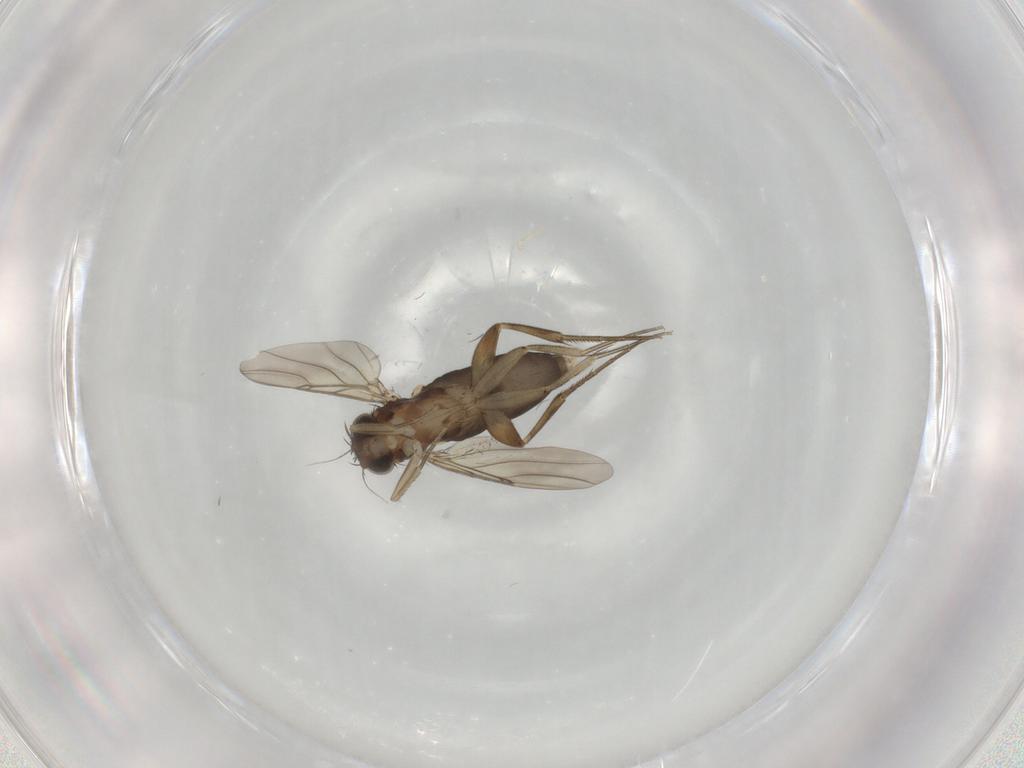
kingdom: Animalia
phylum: Arthropoda
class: Insecta
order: Diptera
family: Phoridae
